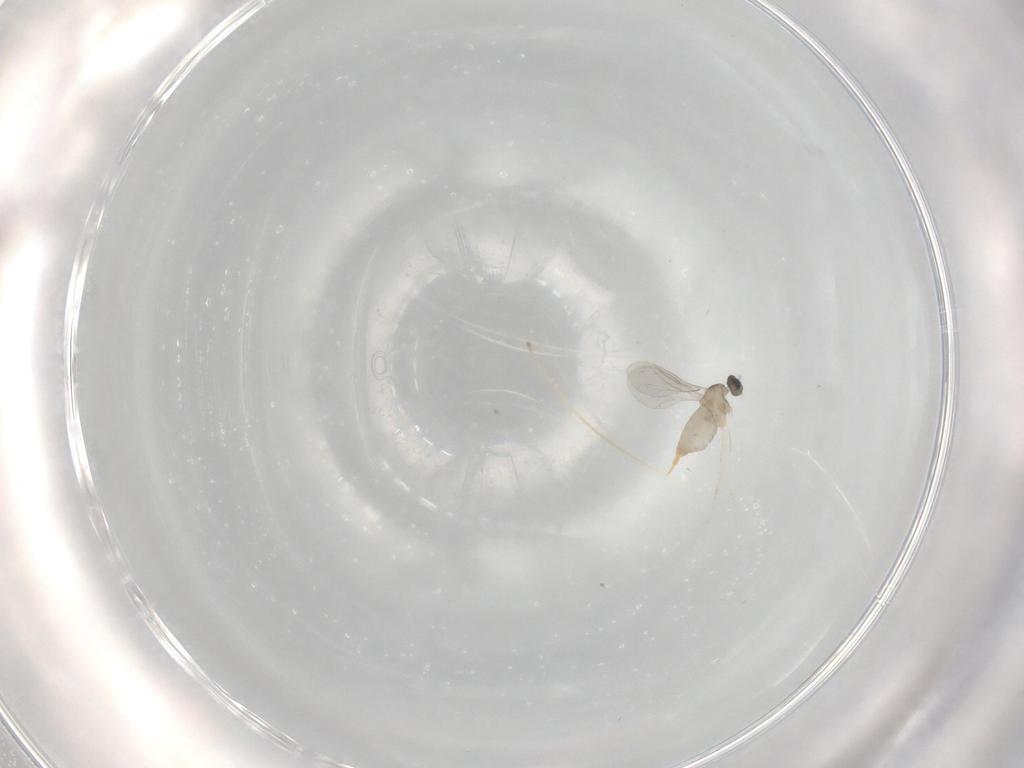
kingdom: Animalia
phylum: Arthropoda
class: Insecta
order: Diptera
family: Cecidomyiidae
